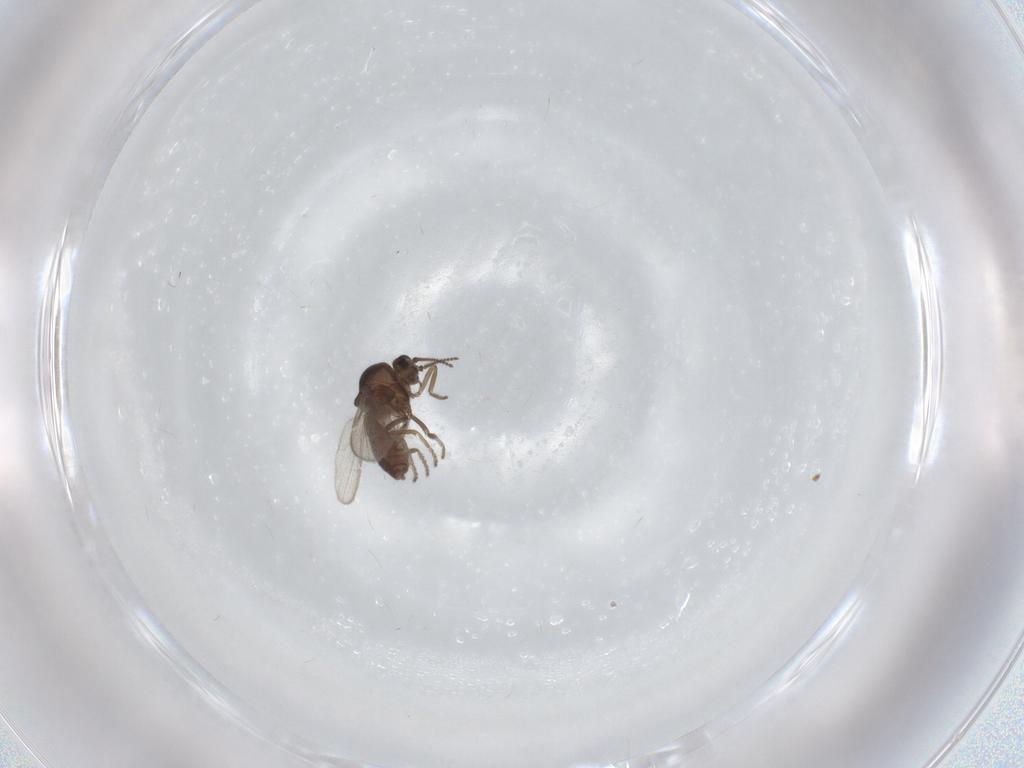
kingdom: Animalia
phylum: Arthropoda
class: Insecta
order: Diptera
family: Ceratopogonidae
